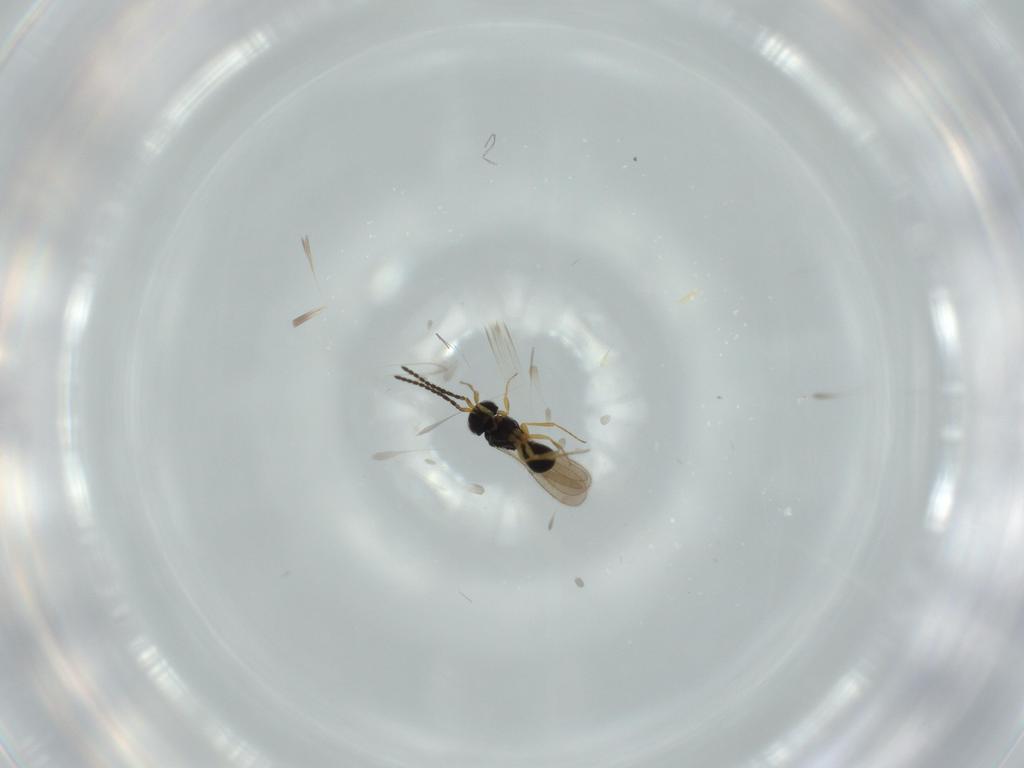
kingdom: Animalia
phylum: Arthropoda
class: Insecta
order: Hymenoptera
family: Scelionidae
